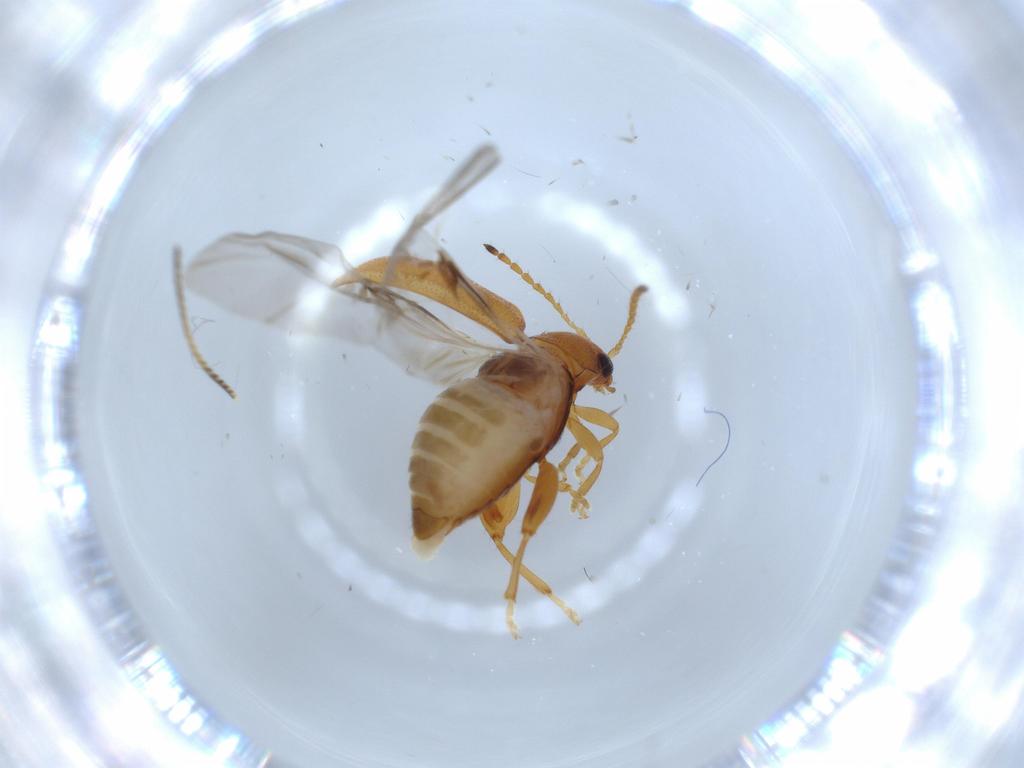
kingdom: Animalia
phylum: Arthropoda
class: Insecta
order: Coleoptera
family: Chrysomelidae
